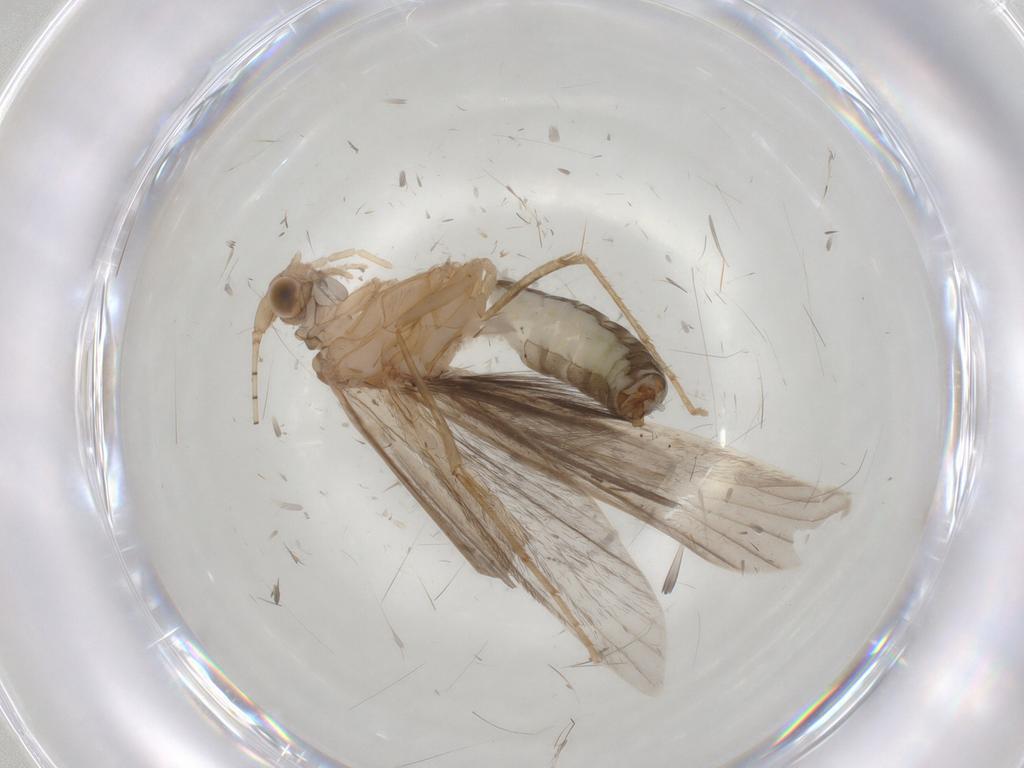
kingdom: Animalia
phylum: Arthropoda
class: Insecta
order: Trichoptera
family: Leptoceridae
